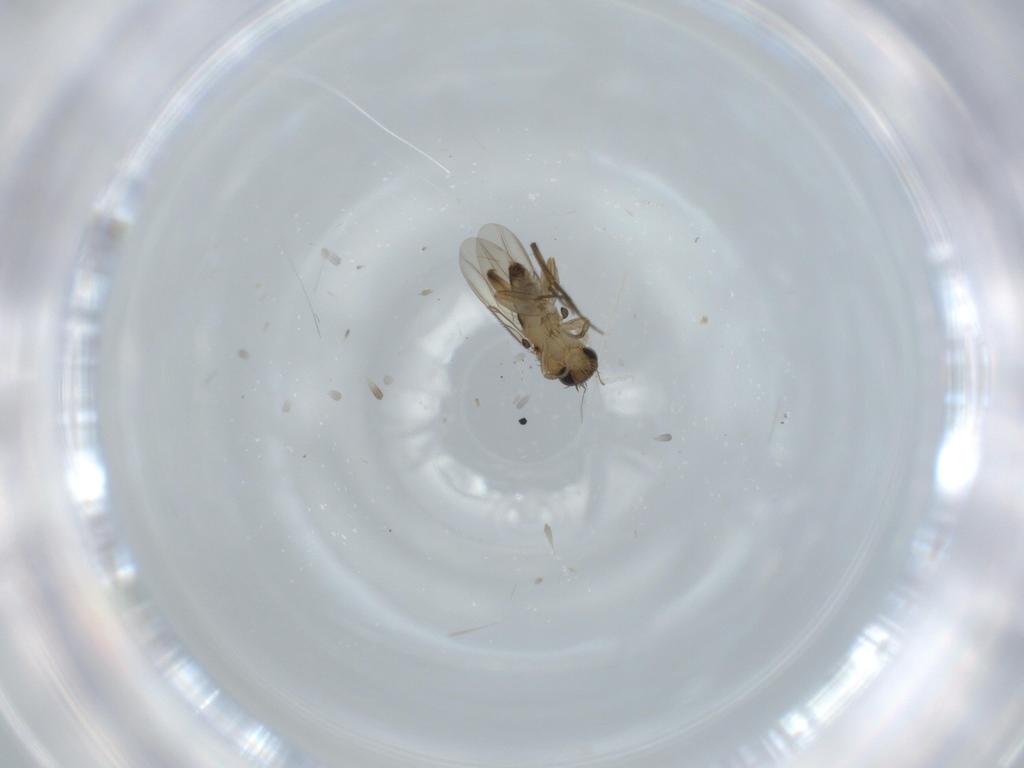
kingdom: Animalia
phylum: Arthropoda
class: Insecta
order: Diptera
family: Phoridae
